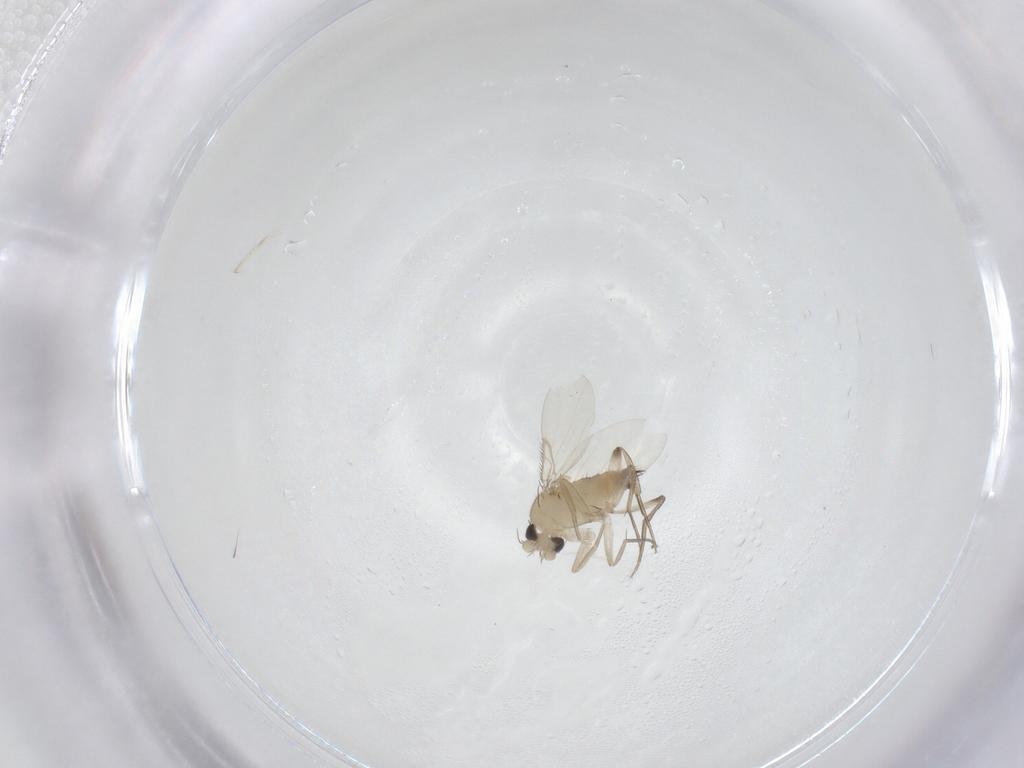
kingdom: Animalia
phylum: Arthropoda
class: Insecta
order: Diptera
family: Phoridae
